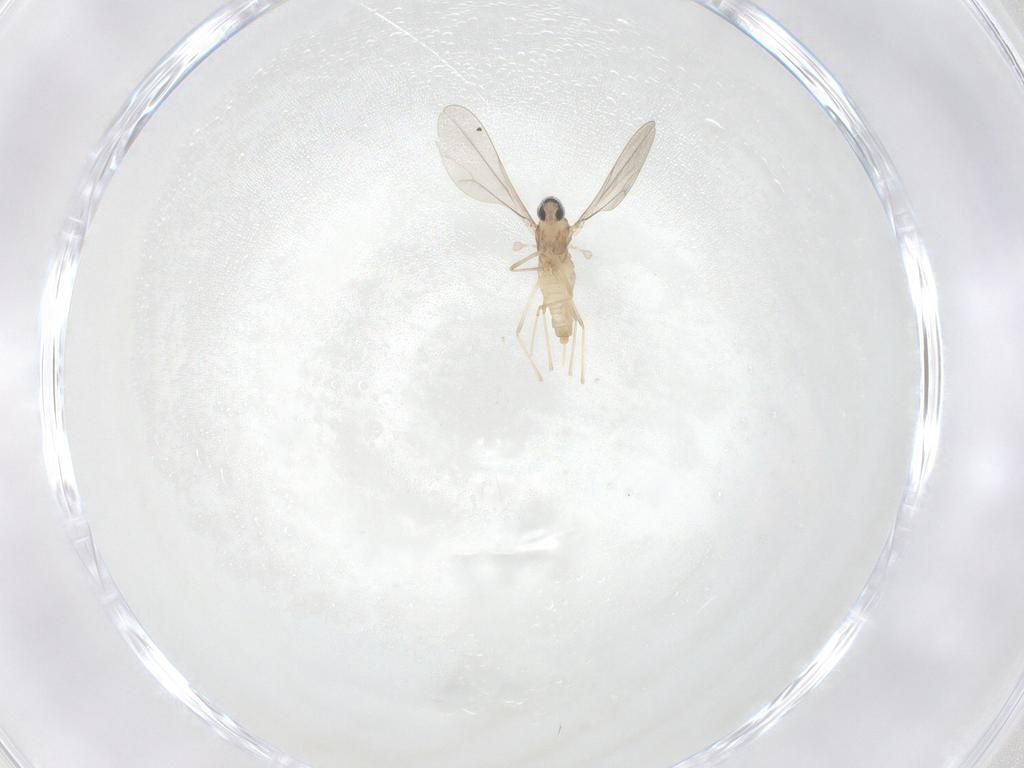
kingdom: Animalia
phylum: Arthropoda
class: Insecta
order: Diptera
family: Cecidomyiidae
